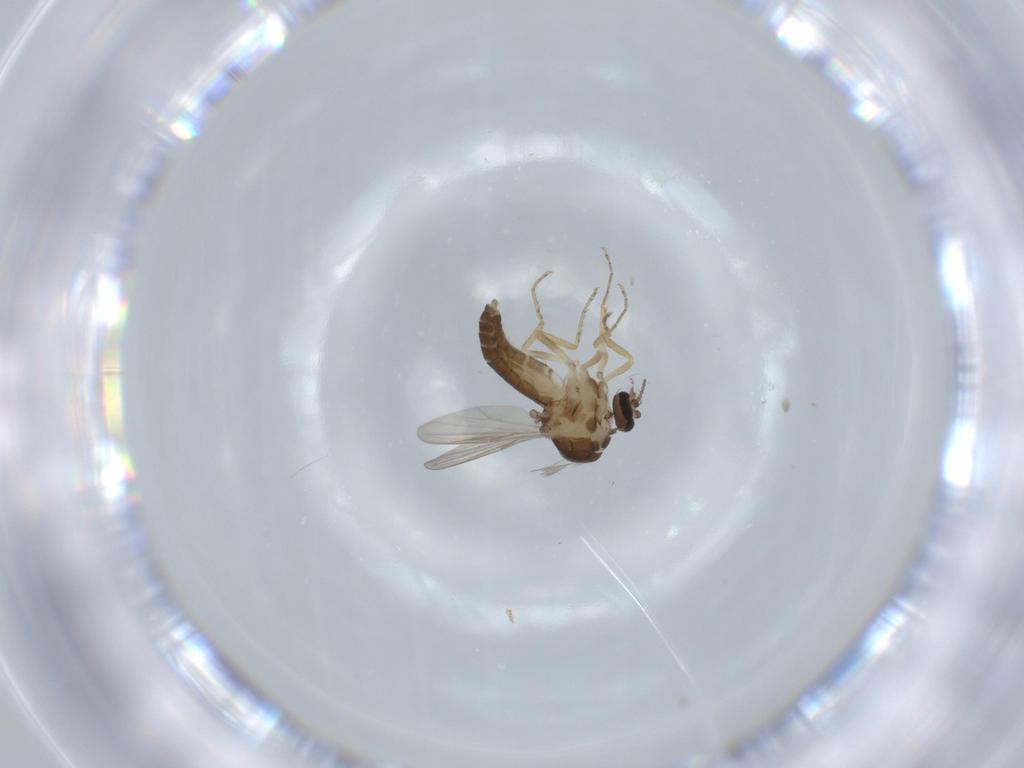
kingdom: Animalia
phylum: Arthropoda
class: Insecta
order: Diptera
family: Ceratopogonidae
